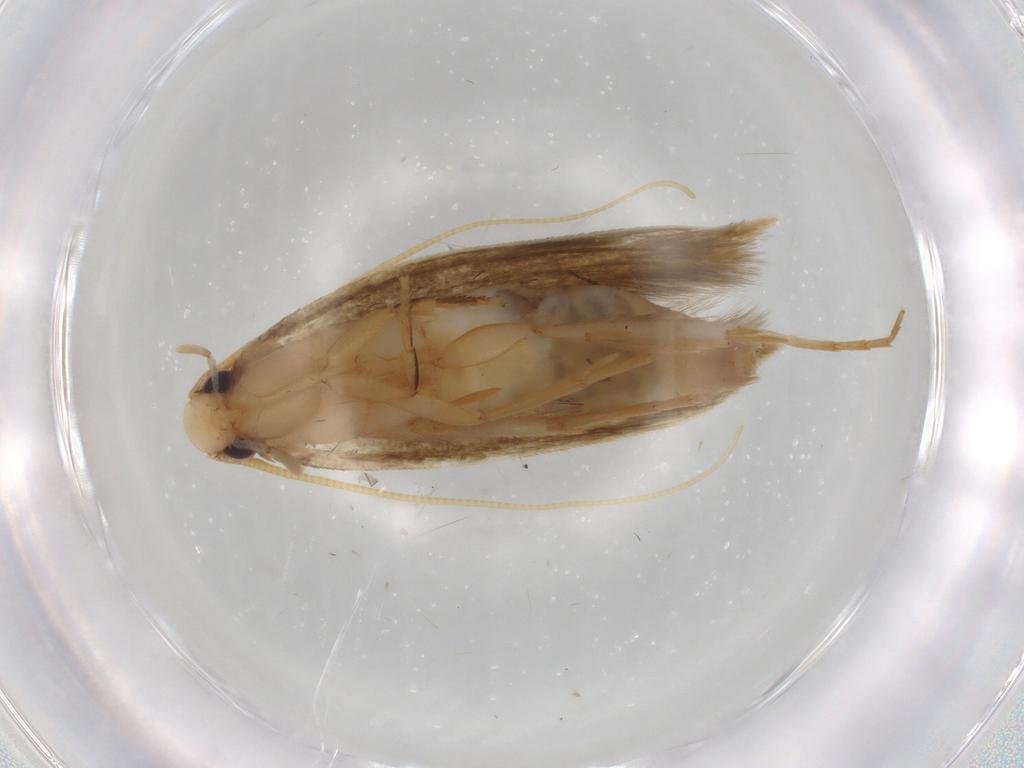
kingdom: Animalia
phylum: Arthropoda
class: Insecta
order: Lepidoptera
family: Tineidae
